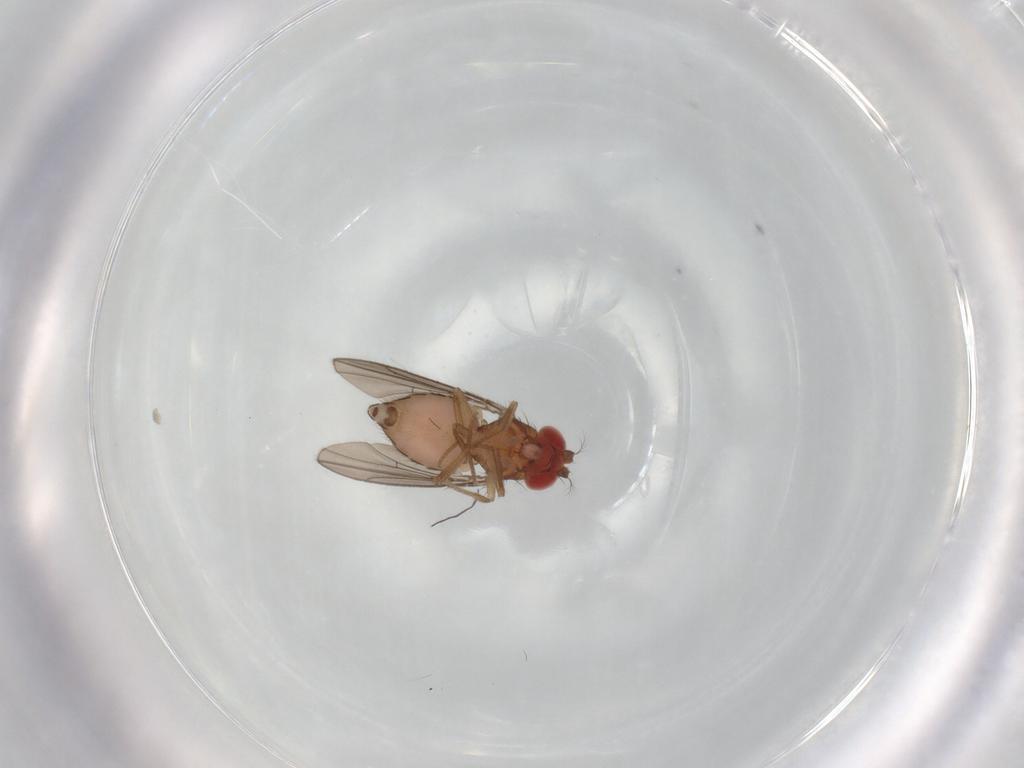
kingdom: Animalia
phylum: Arthropoda
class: Insecta
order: Diptera
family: Drosophilidae
